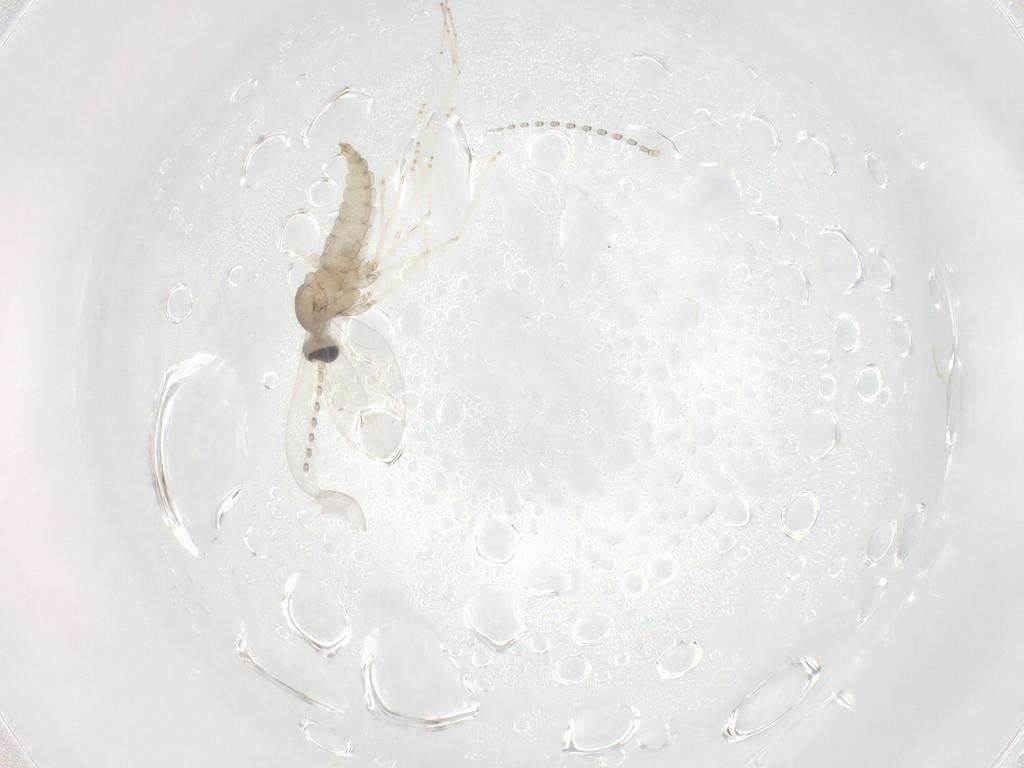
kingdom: Animalia
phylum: Arthropoda
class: Insecta
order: Diptera
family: Cecidomyiidae
